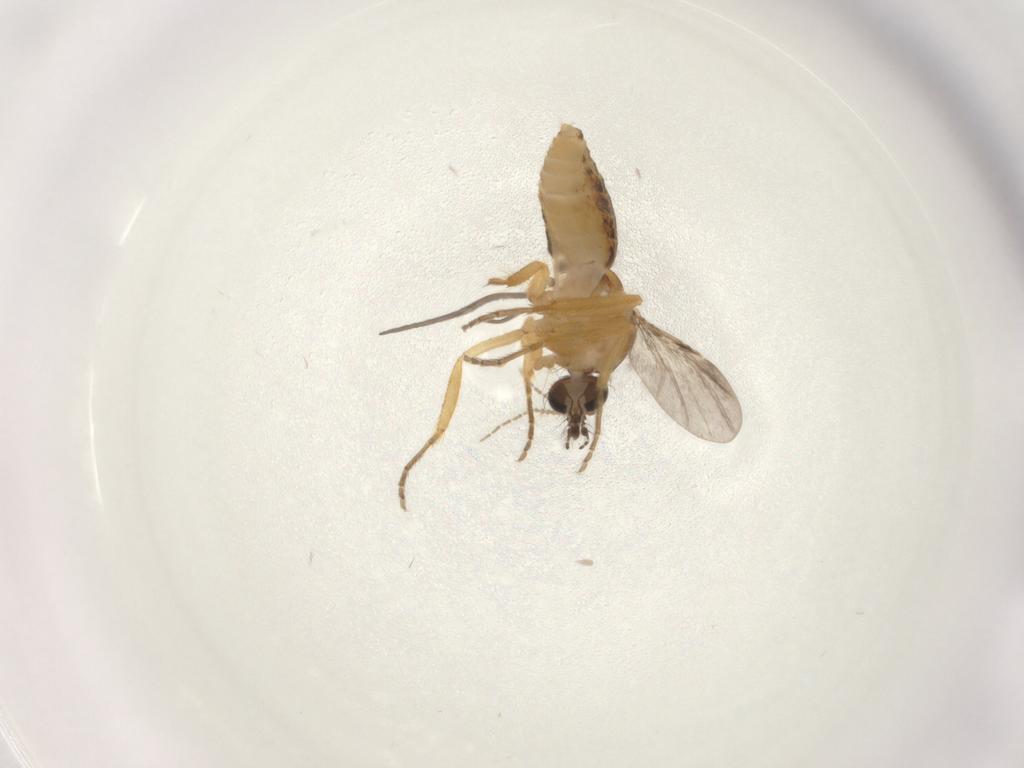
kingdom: Animalia
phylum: Arthropoda
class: Insecta
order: Diptera
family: Ceratopogonidae
